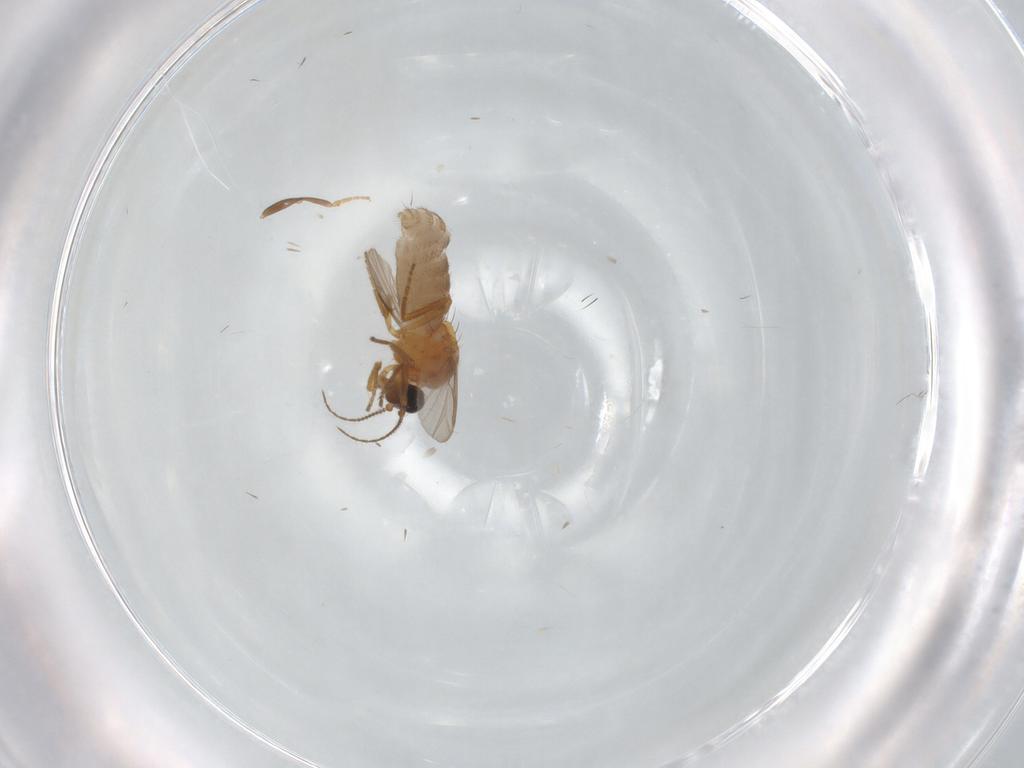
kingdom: Animalia
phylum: Arthropoda
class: Insecta
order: Diptera
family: Ceratopogonidae
